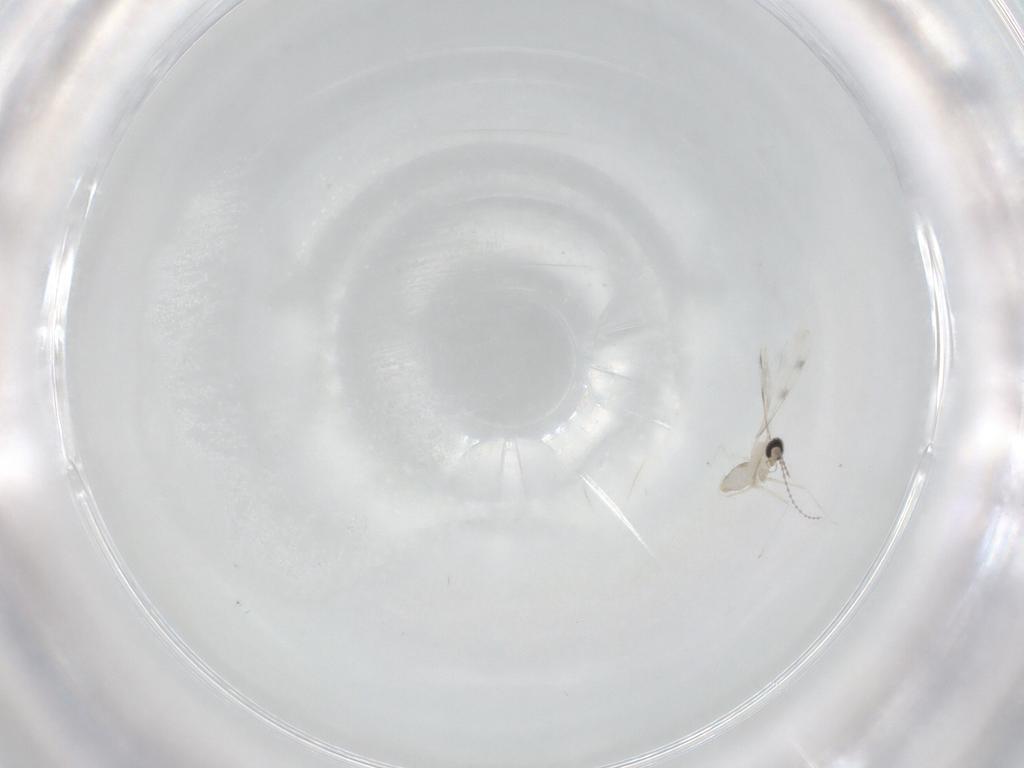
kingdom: Animalia
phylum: Arthropoda
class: Insecta
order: Diptera
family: Cecidomyiidae
